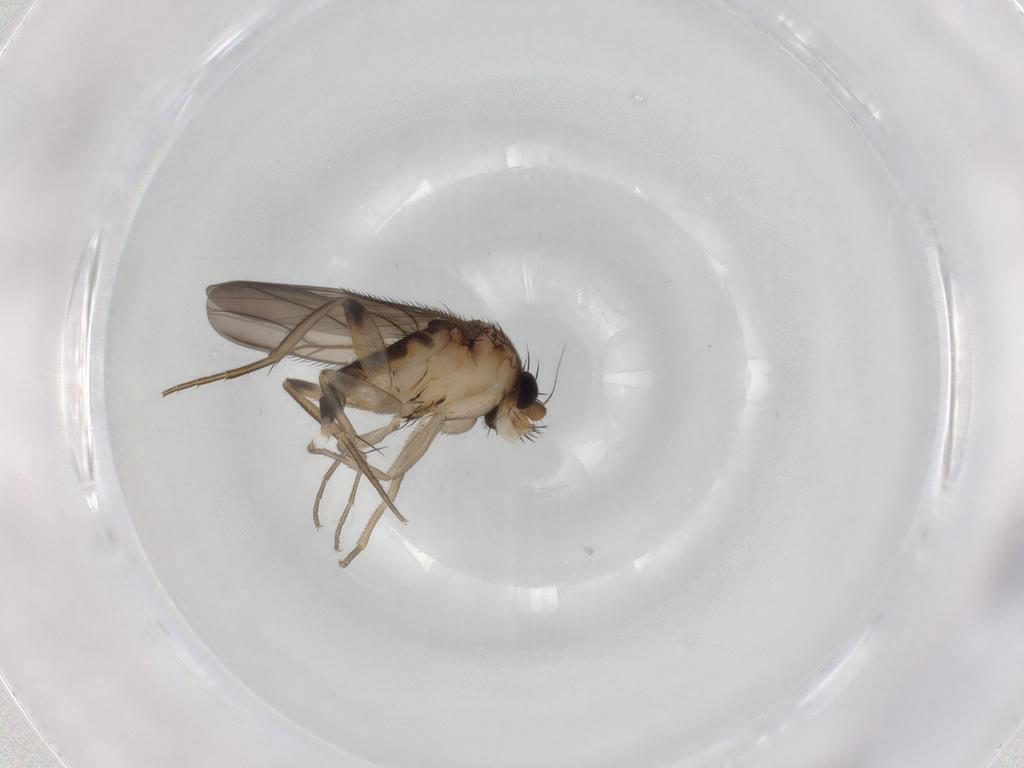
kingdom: Animalia
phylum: Arthropoda
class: Insecta
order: Diptera
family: Phoridae
